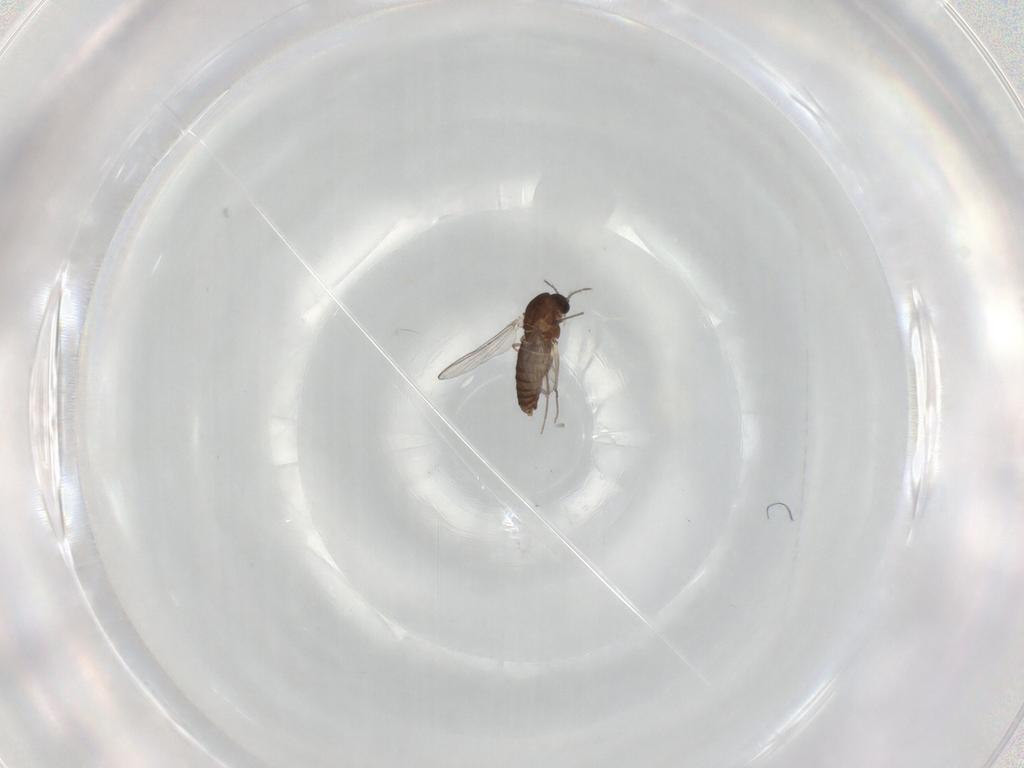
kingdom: Animalia
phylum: Arthropoda
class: Insecta
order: Diptera
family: Chironomidae
